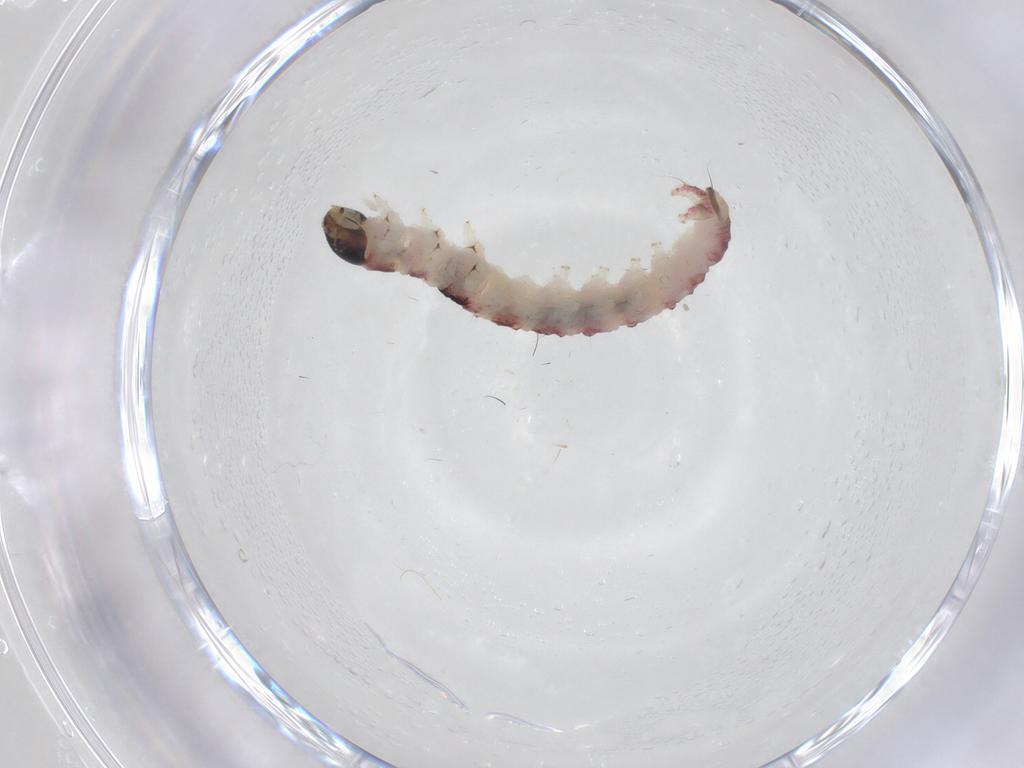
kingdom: Animalia
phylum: Arthropoda
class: Insecta
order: Lepidoptera
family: Gelechiidae
